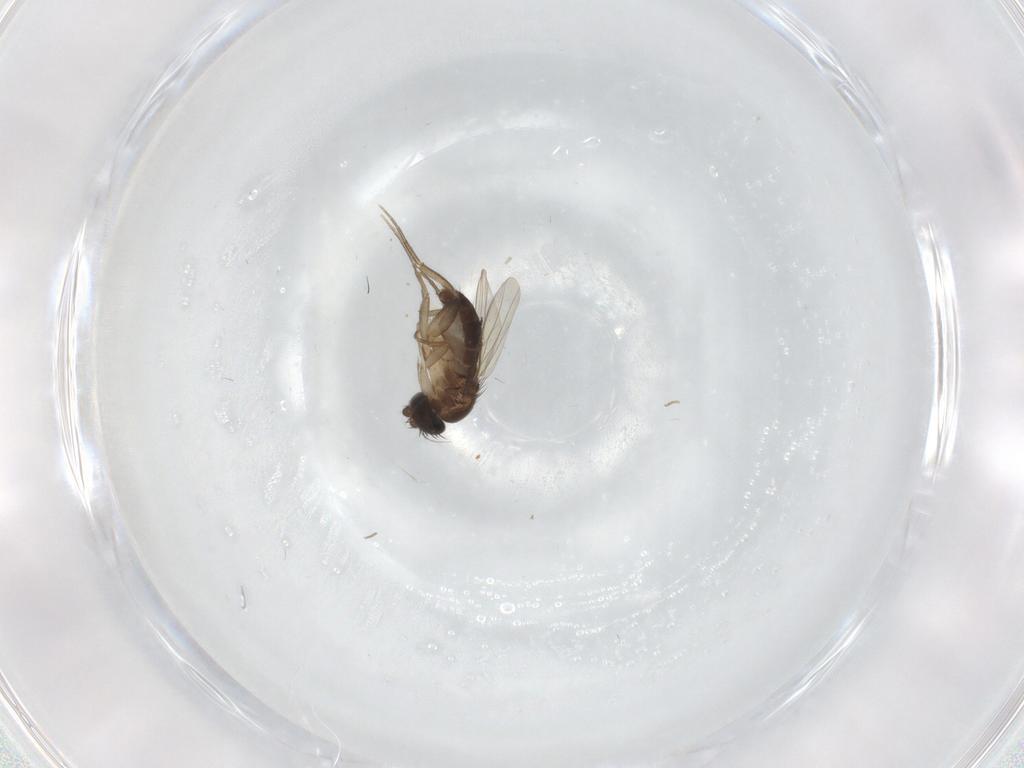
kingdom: Animalia
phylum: Arthropoda
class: Insecta
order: Diptera
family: Phoridae
